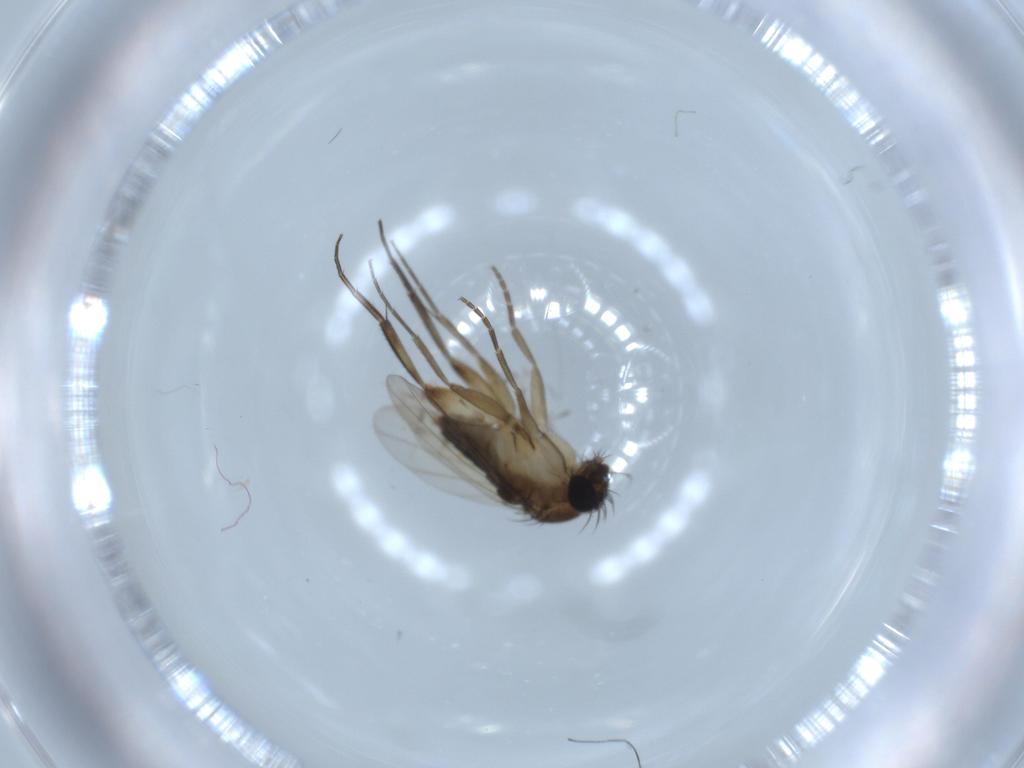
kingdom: Animalia
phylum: Arthropoda
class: Insecta
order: Diptera
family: Phoridae
